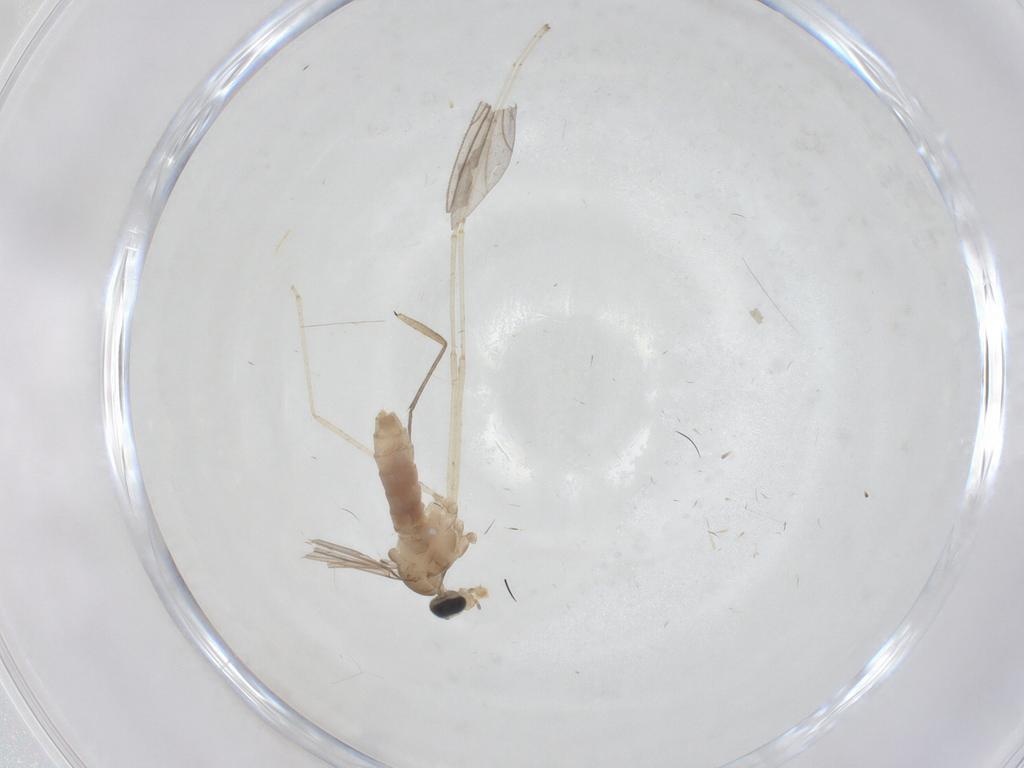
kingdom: Animalia
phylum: Arthropoda
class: Insecta
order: Diptera
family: Cecidomyiidae
